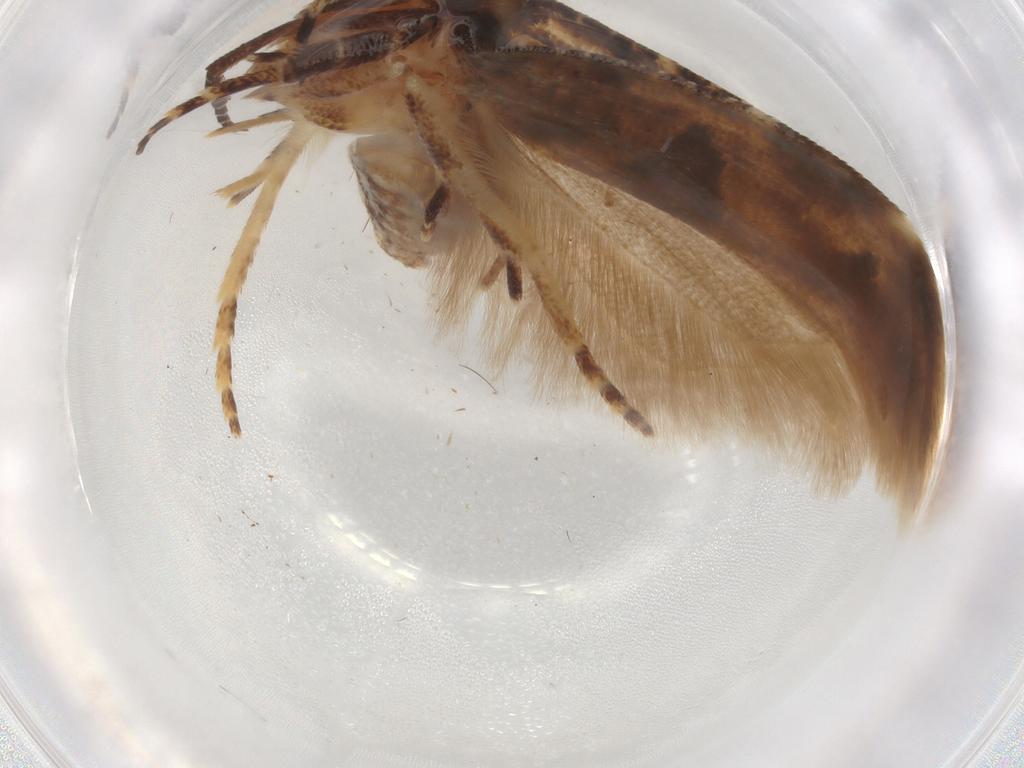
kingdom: Animalia
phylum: Arthropoda
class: Insecta
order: Lepidoptera
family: Gelechiidae
